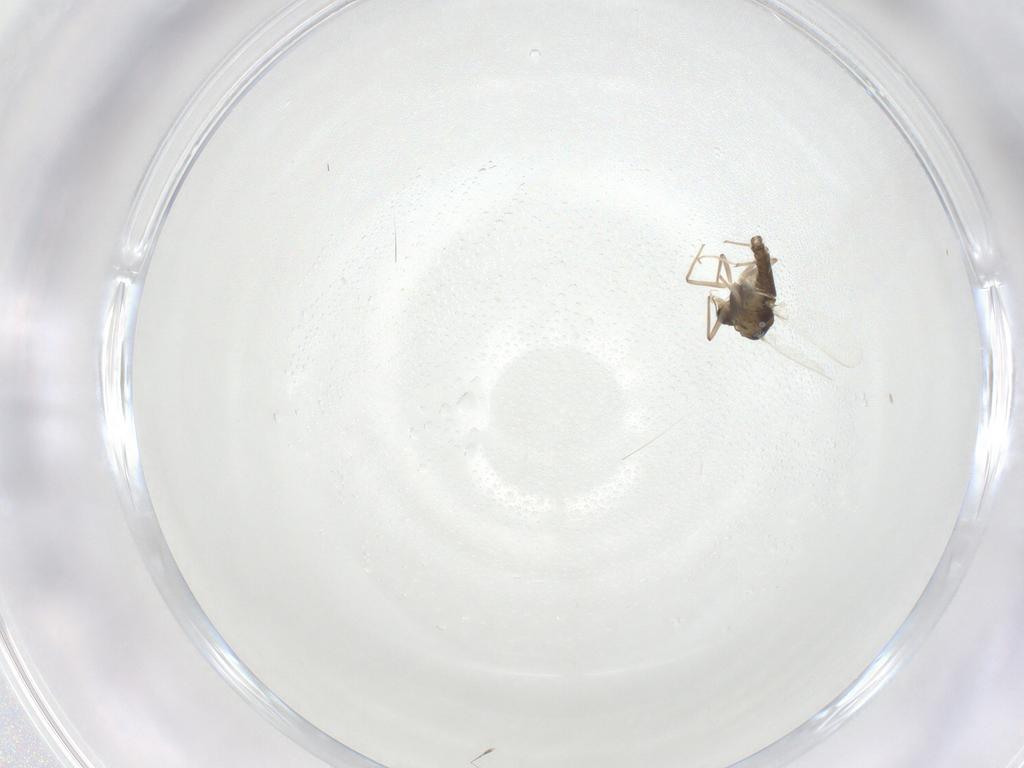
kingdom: Animalia
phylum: Arthropoda
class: Insecta
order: Diptera
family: Chironomidae
